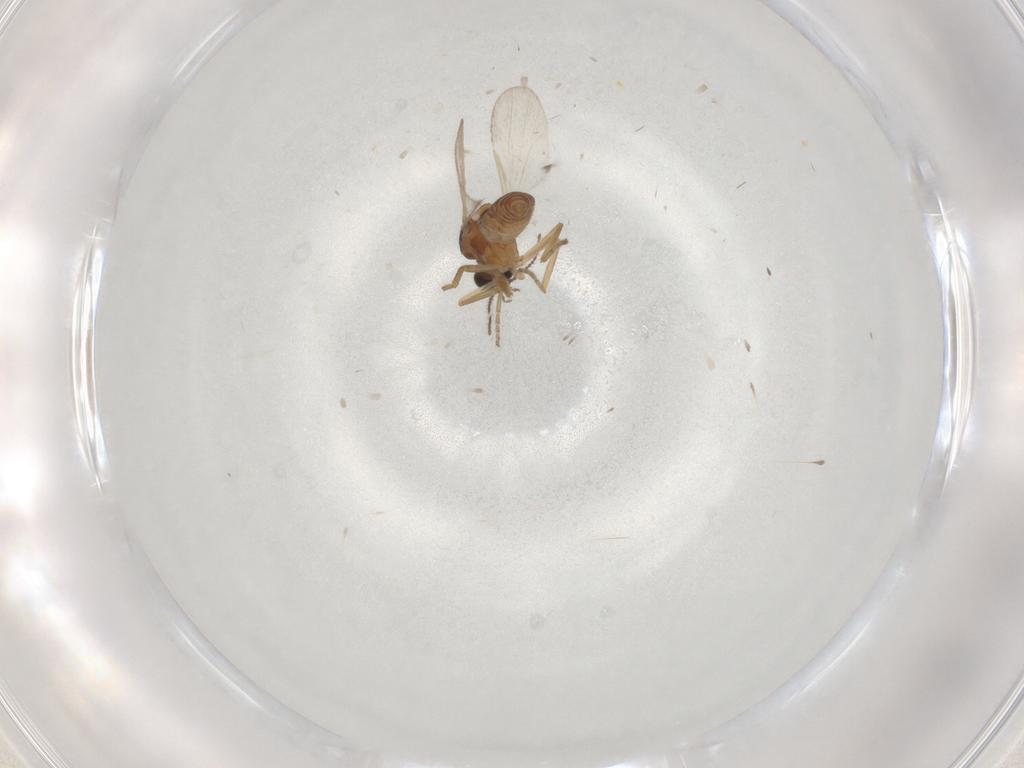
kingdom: Animalia
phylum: Arthropoda
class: Insecta
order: Diptera
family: Ceratopogonidae
